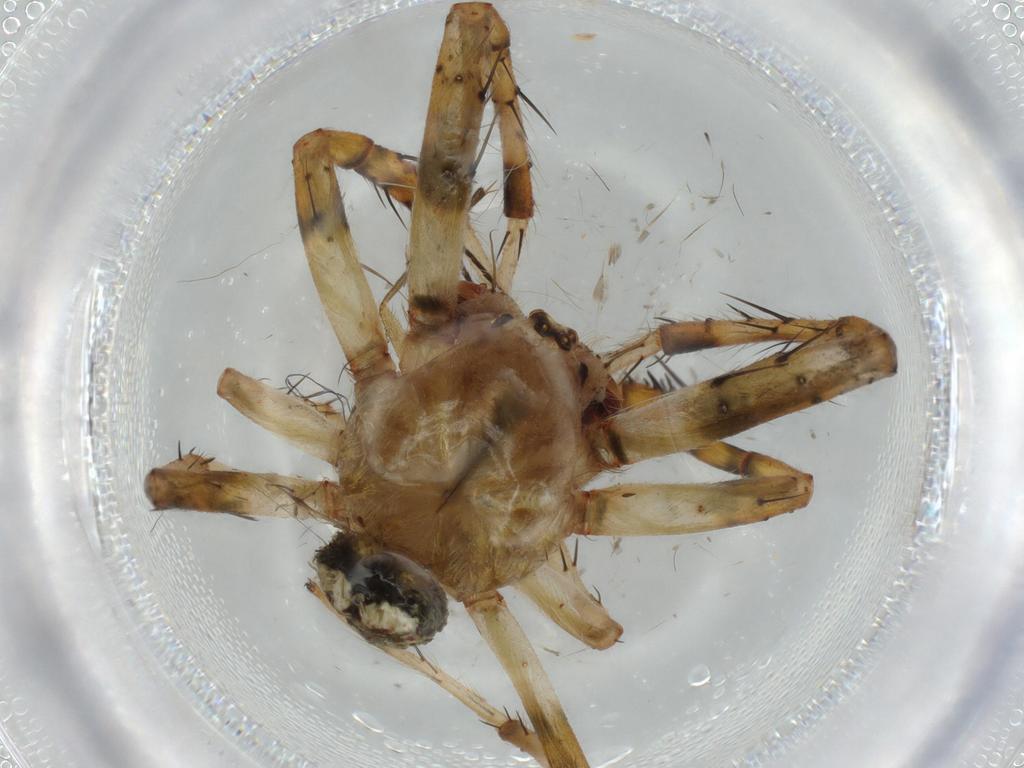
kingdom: Animalia
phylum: Arthropoda
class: Arachnida
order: Araneae
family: Araneidae
